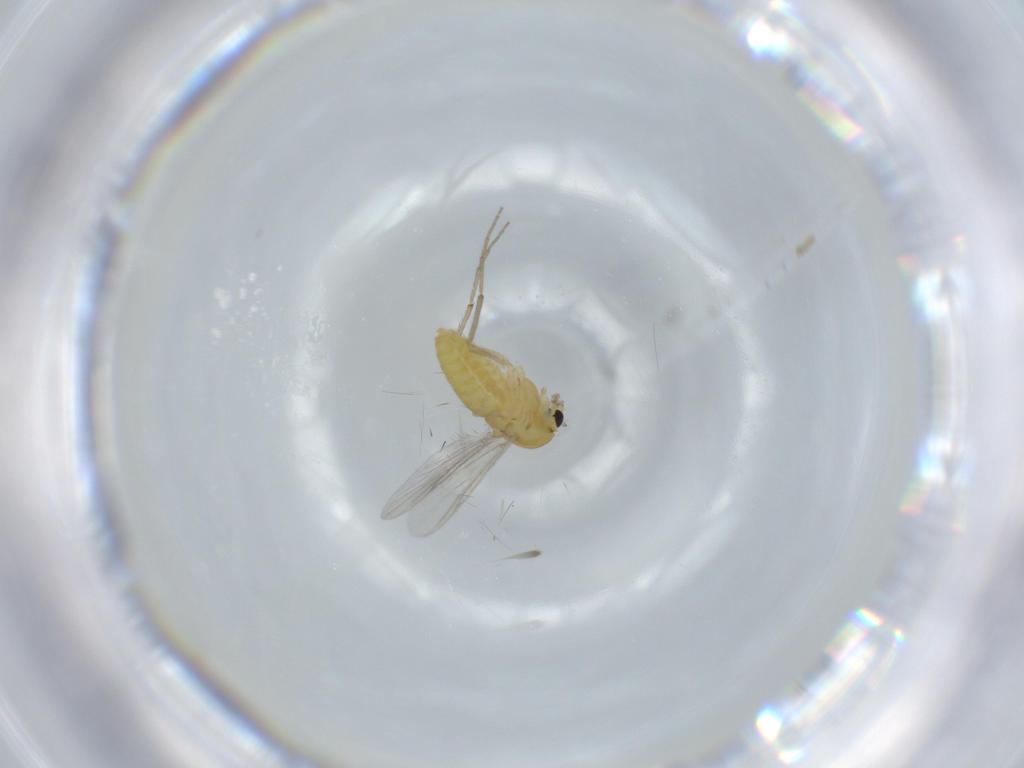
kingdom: Animalia
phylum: Arthropoda
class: Insecta
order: Diptera
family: Chironomidae
